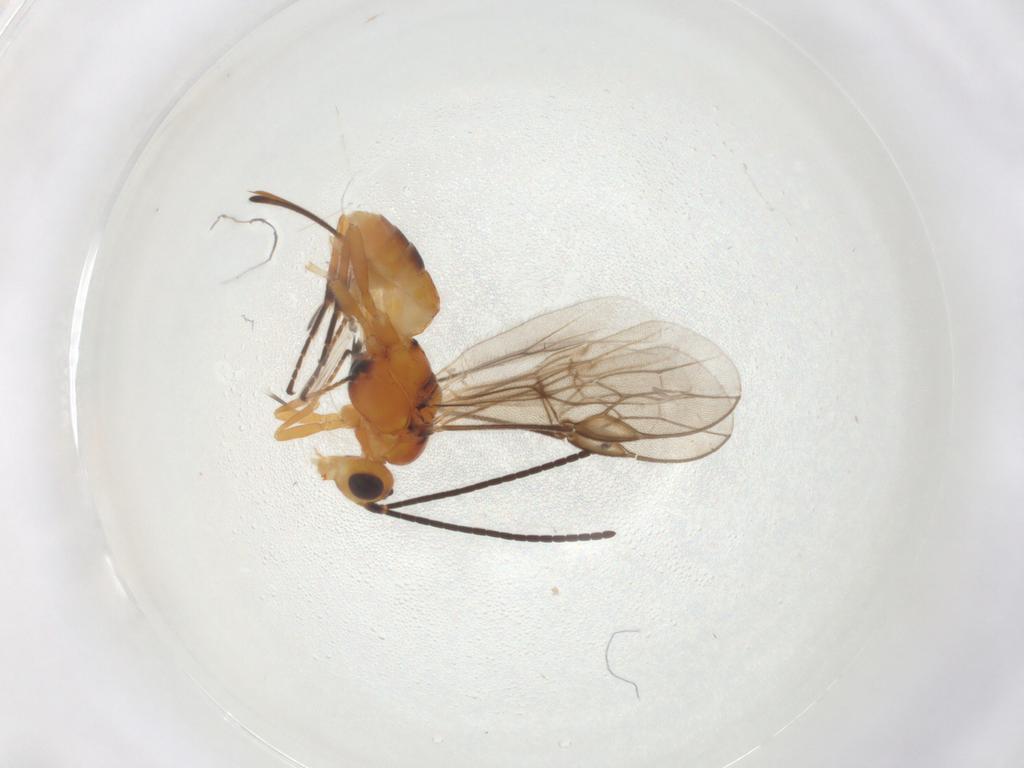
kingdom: Animalia
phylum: Arthropoda
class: Insecta
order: Hymenoptera
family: Braconidae
